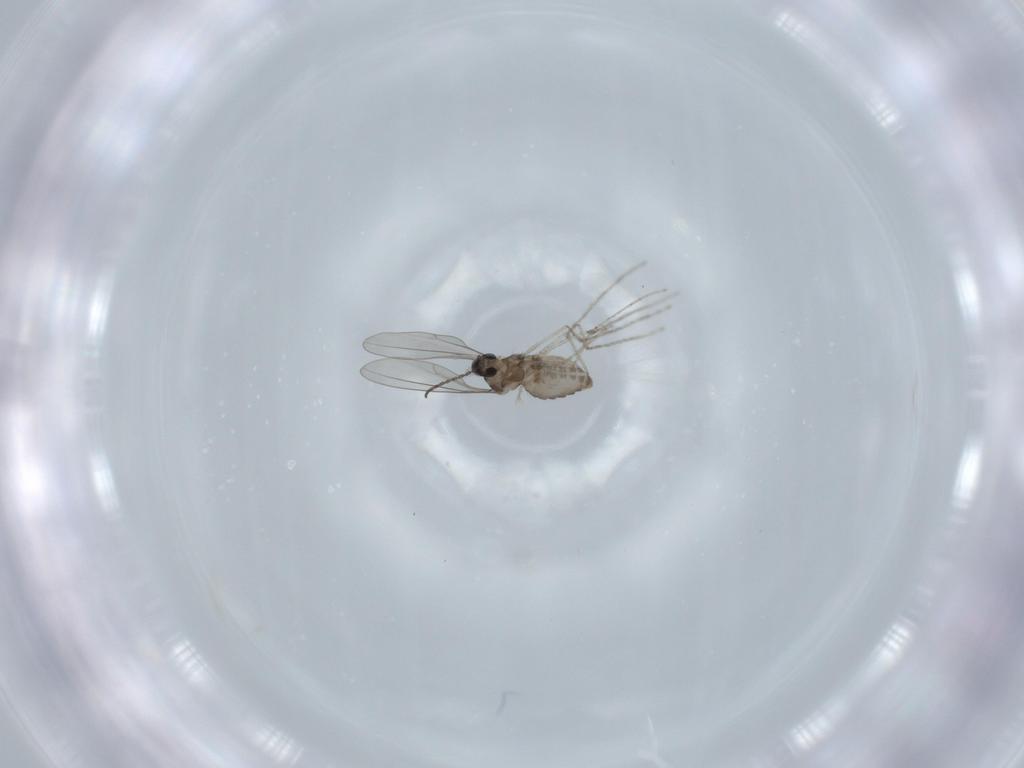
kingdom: Animalia
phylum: Arthropoda
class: Insecta
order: Diptera
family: Cecidomyiidae
